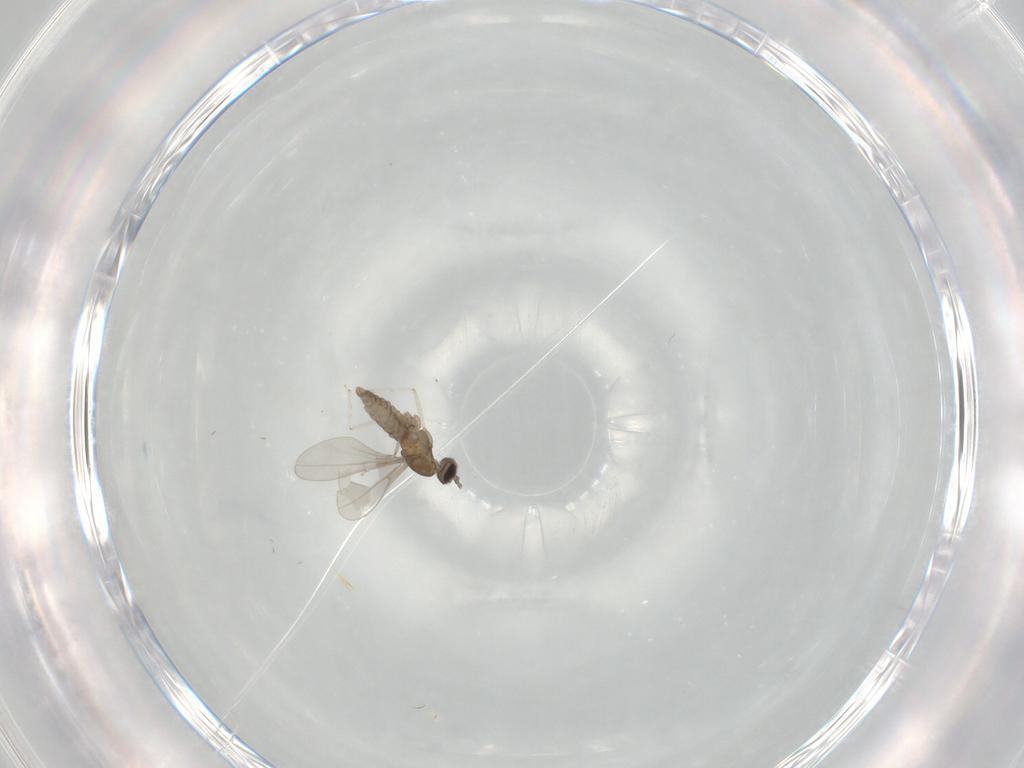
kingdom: Animalia
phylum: Arthropoda
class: Insecta
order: Diptera
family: Cecidomyiidae
